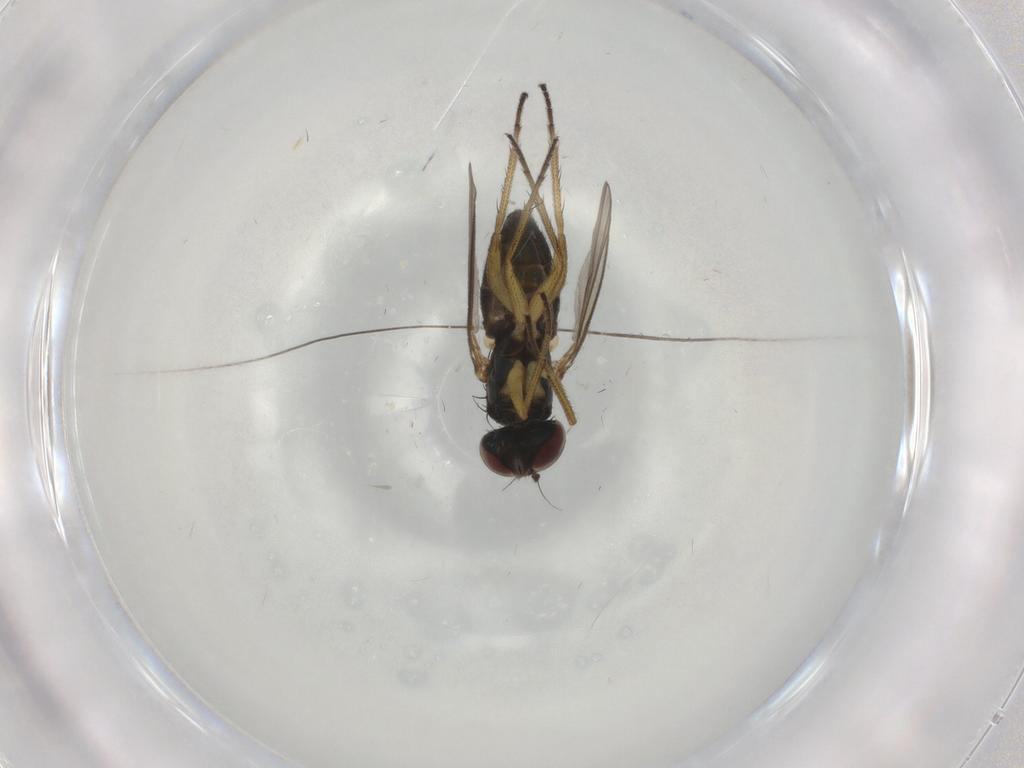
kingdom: Animalia
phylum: Arthropoda
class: Insecta
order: Diptera
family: Dolichopodidae
